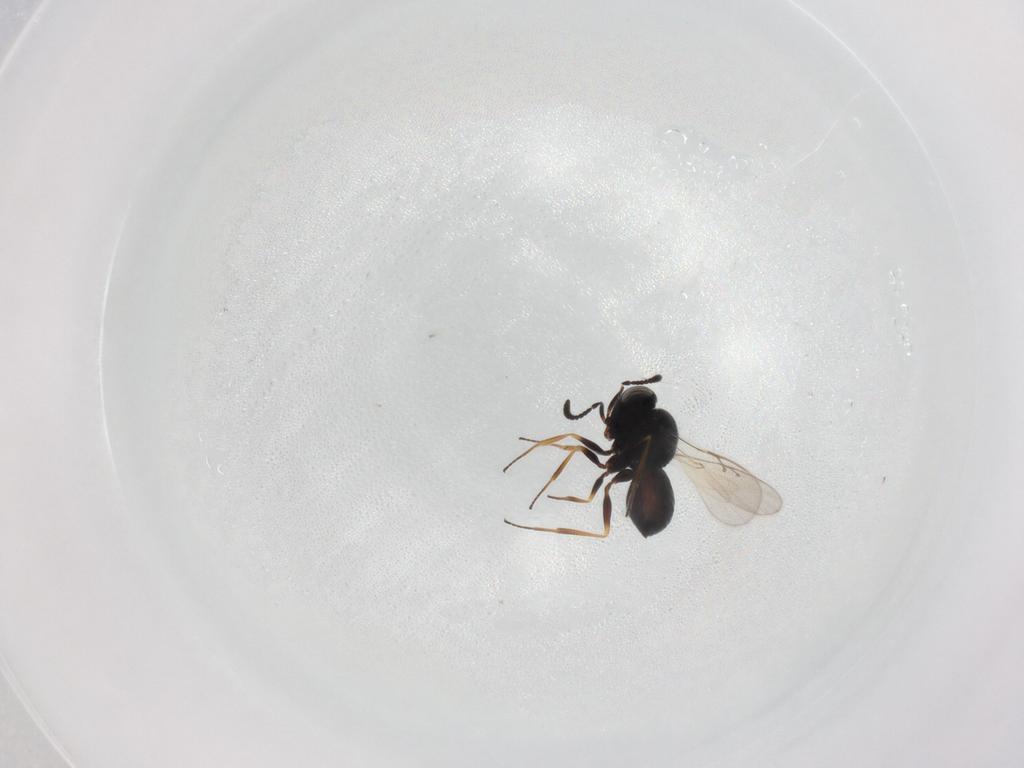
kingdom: Animalia
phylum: Arthropoda
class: Insecta
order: Hymenoptera
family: Dryinidae
